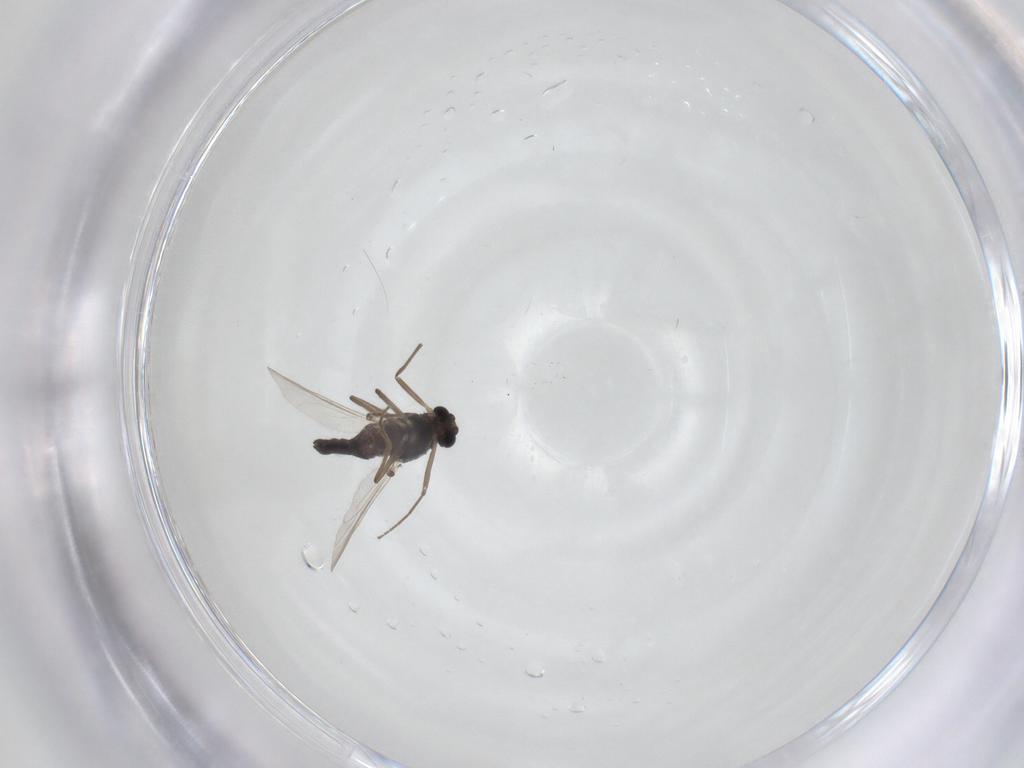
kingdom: Animalia
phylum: Arthropoda
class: Insecta
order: Diptera
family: Chironomidae
